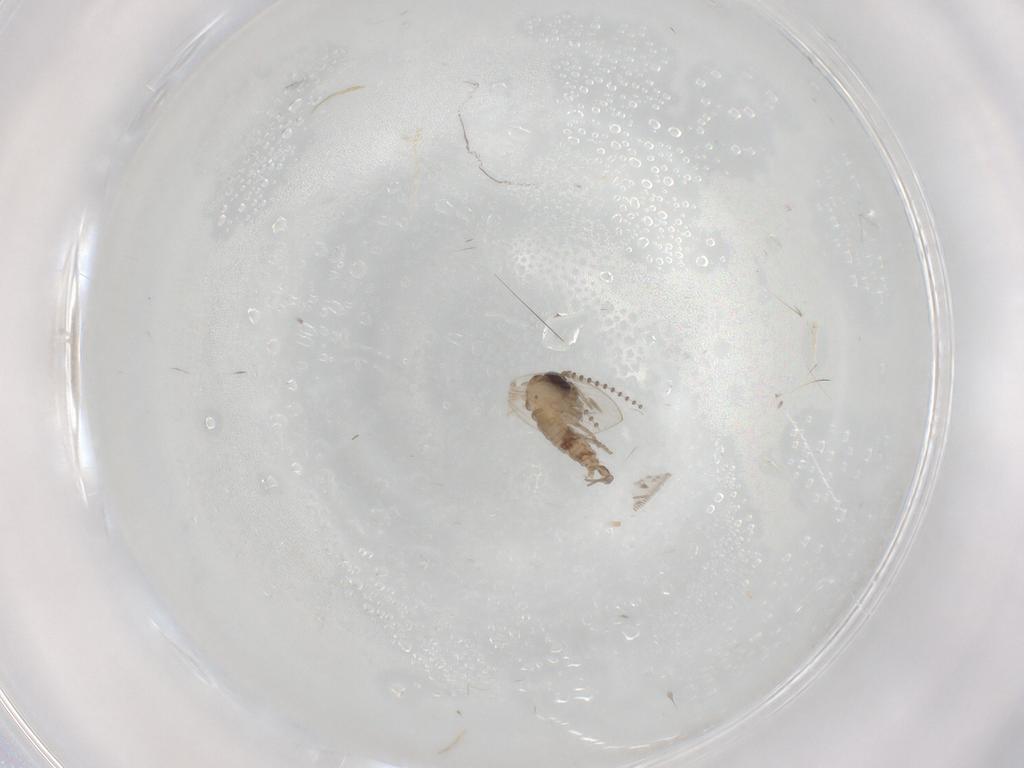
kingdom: Animalia
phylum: Arthropoda
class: Insecta
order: Diptera
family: Psychodidae
